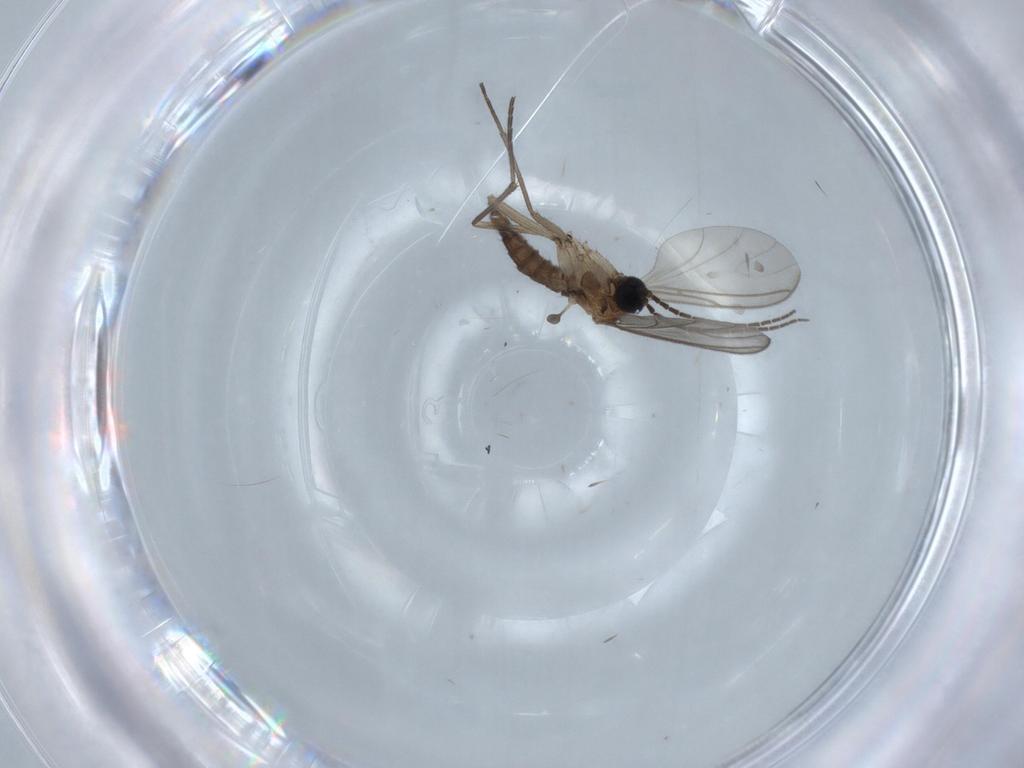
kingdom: Animalia
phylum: Arthropoda
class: Insecta
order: Diptera
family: Sciaridae
